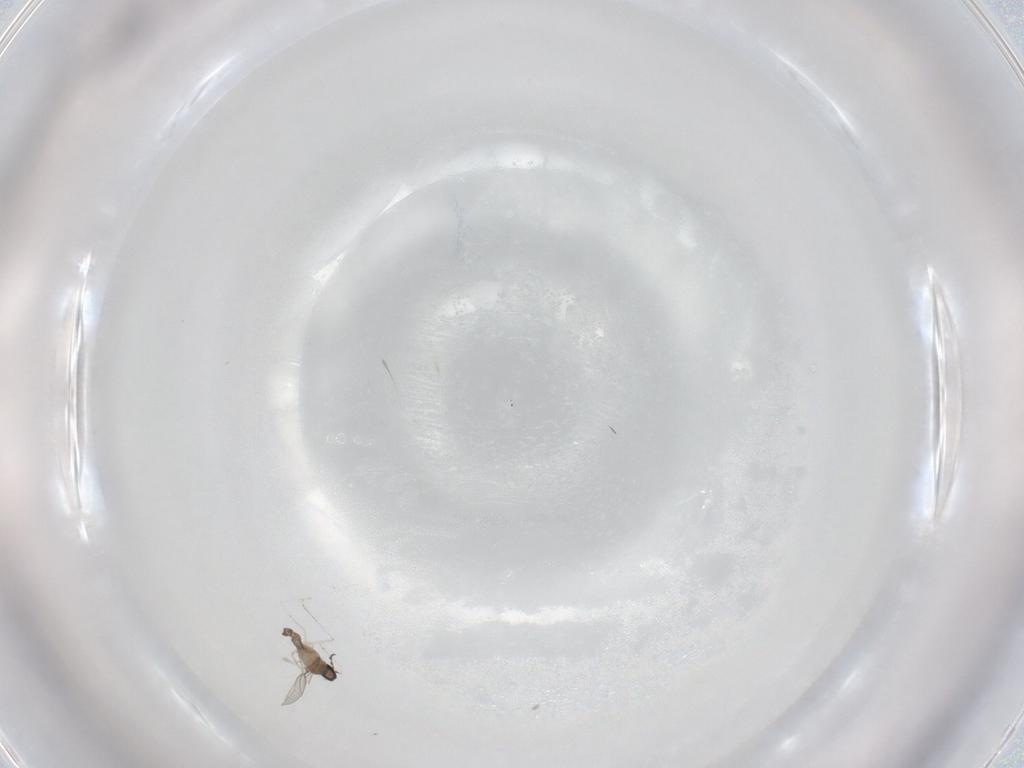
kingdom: Animalia
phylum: Arthropoda
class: Insecta
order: Diptera
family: Cecidomyiidae
